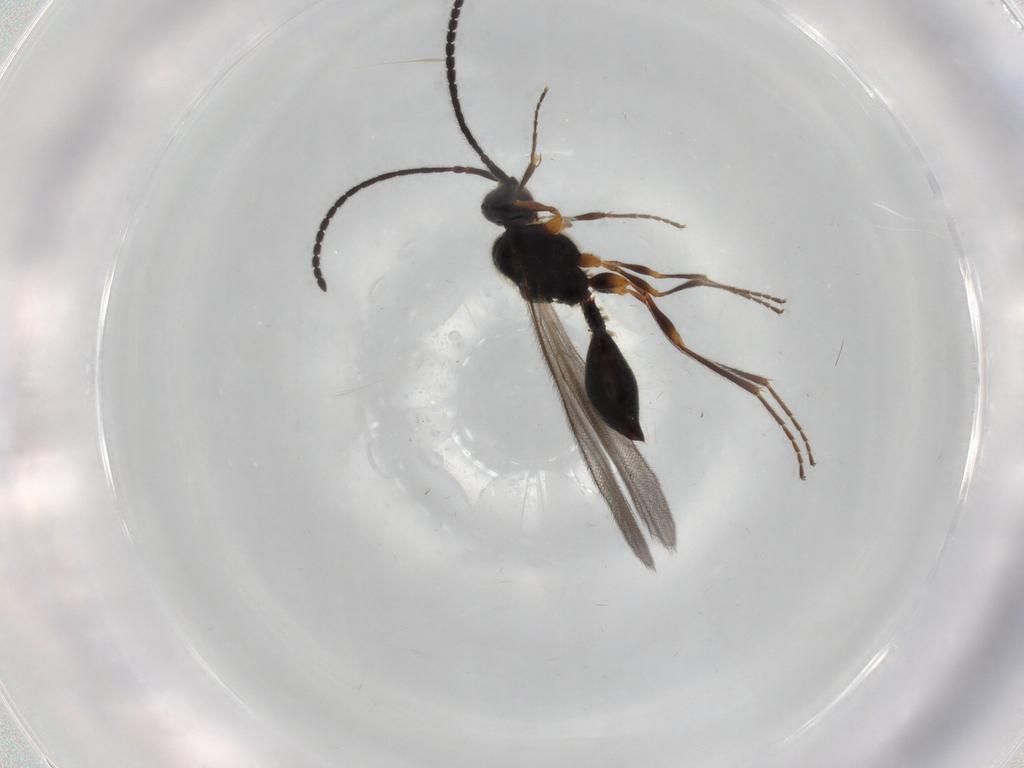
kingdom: Animalia
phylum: Arthropoda
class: Insecta
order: Hymenoptera
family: Diapriidae
